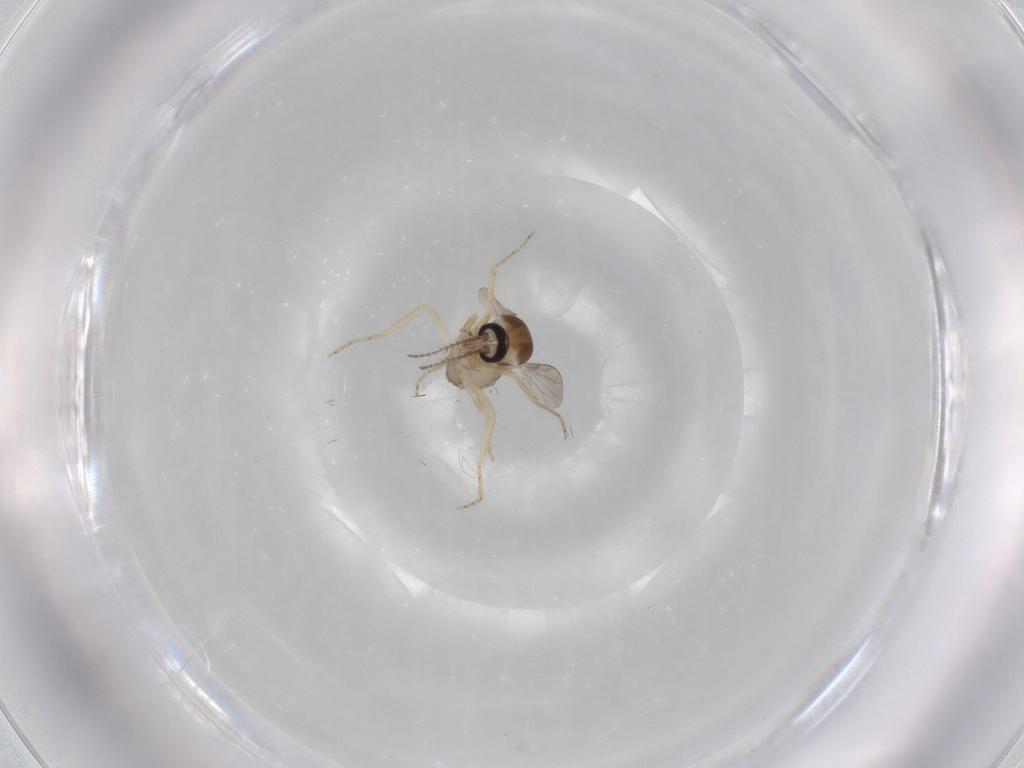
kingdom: Animalia
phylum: Arthropoda
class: Insecta
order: Diptera
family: Ceratopogonidae
